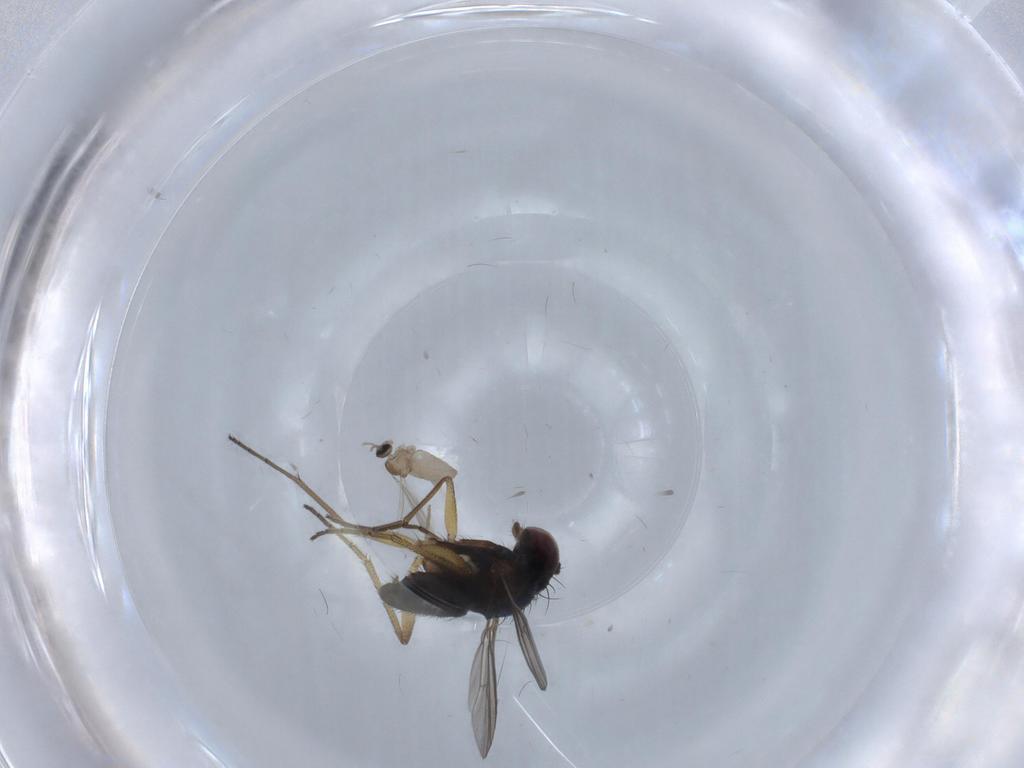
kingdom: Animalia
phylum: Arthropoda
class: Insecta
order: Diptera
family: Dolichopodidae
